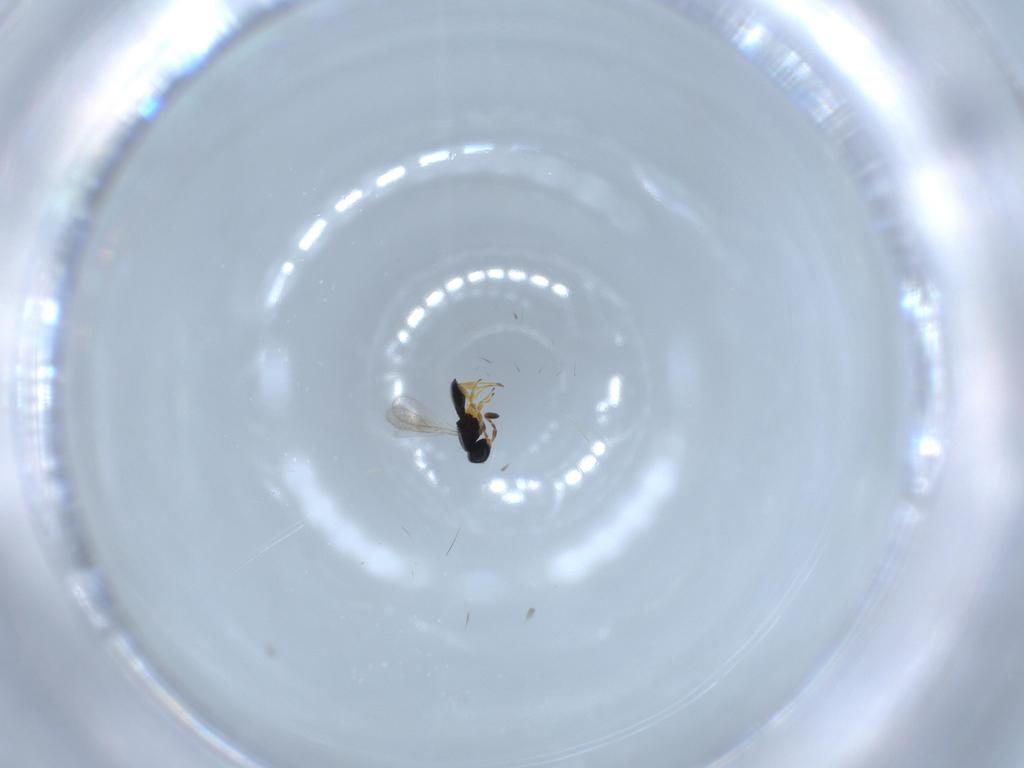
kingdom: Animalia
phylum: Arthropoda
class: Insecta
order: Hymenoptera
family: Scelionidae
